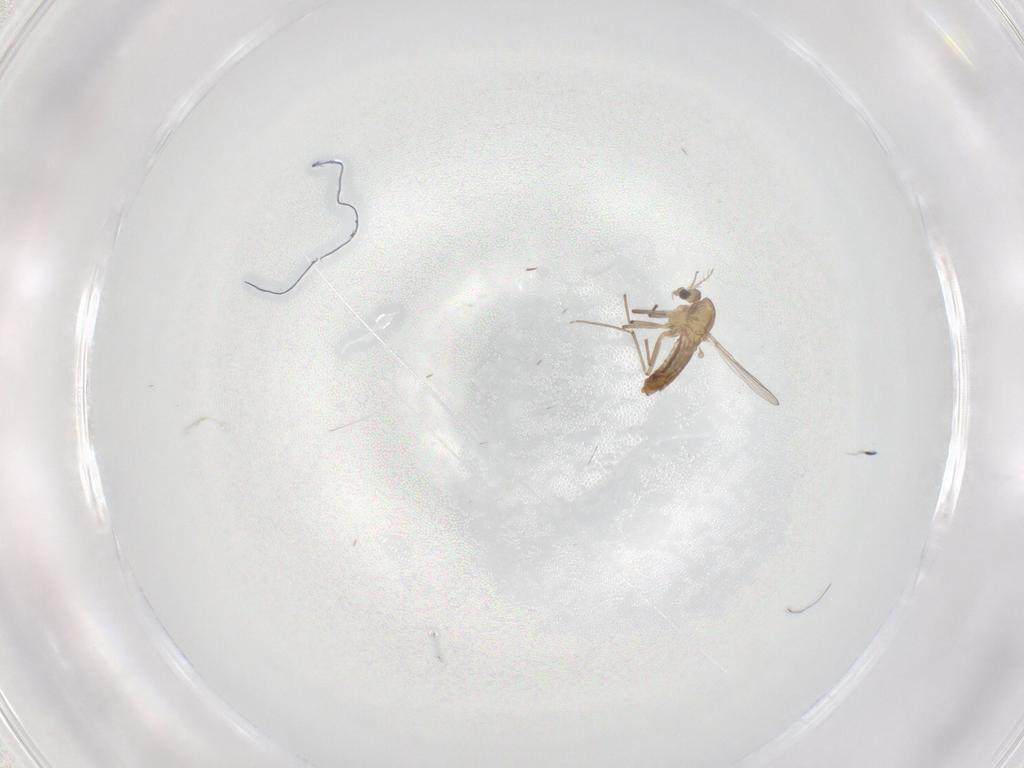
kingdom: Animalia
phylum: Arthropoda
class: Insecta
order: Diptera
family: Chironomidae
